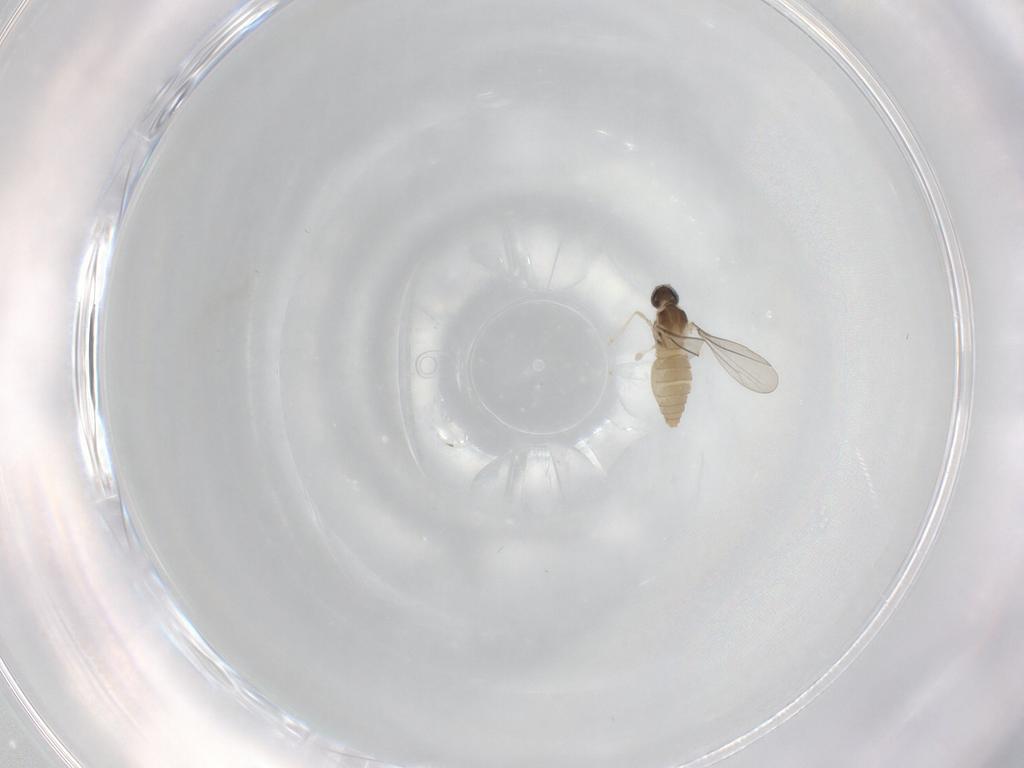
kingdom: Animalia
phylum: Arthropoda
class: Insecta
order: Diptera
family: Cecidomyiidae
